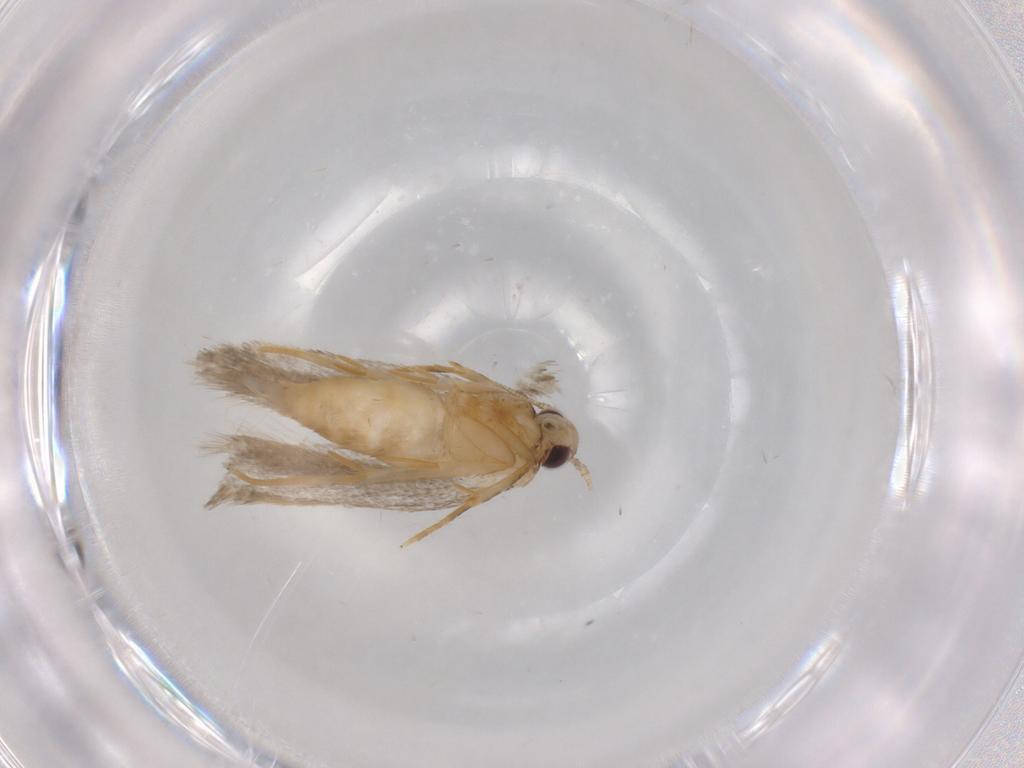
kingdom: Animalia
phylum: Arthropoda
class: Insecta
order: Lepidoptera
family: Autostichidae
